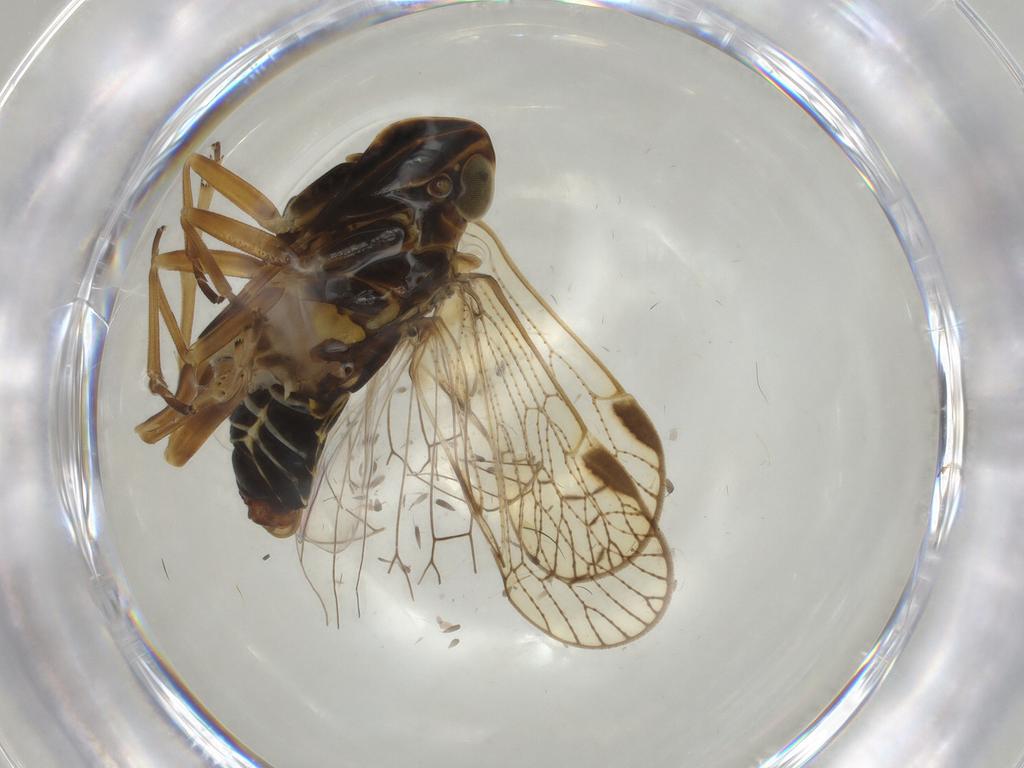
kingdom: Animalia
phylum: Arthropoda
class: Insecta
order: Hemiptera
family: Cixiidae
